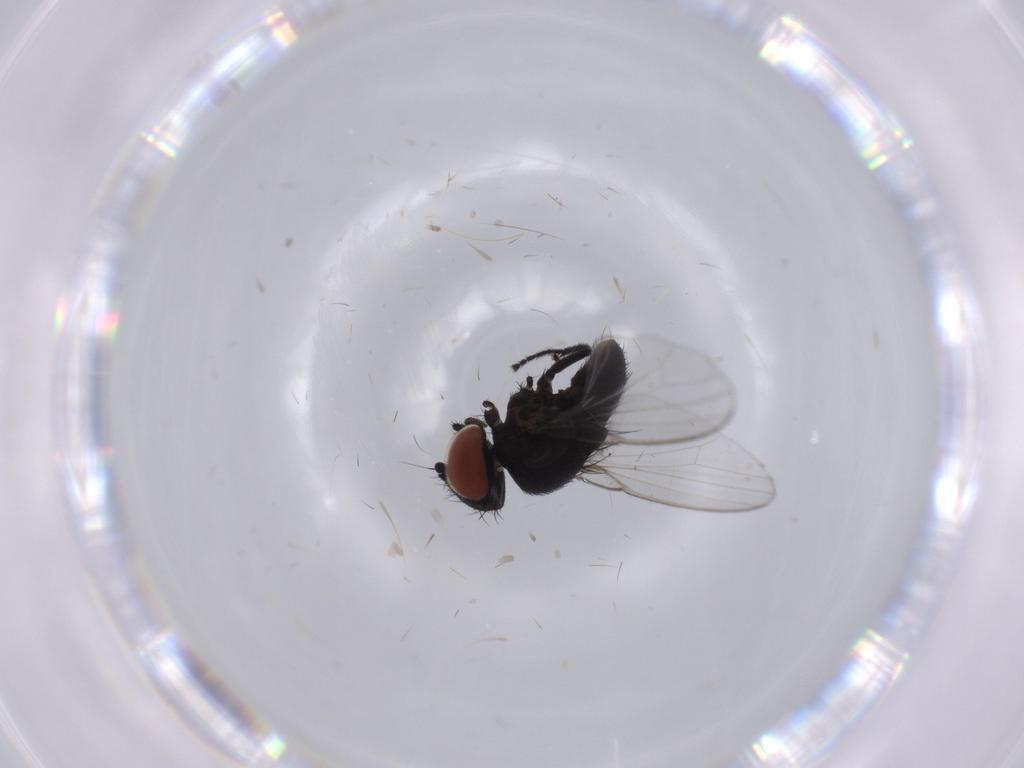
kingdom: Animalia
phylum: Arthropoda
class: Insecta
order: Diptera
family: Milichiidae
